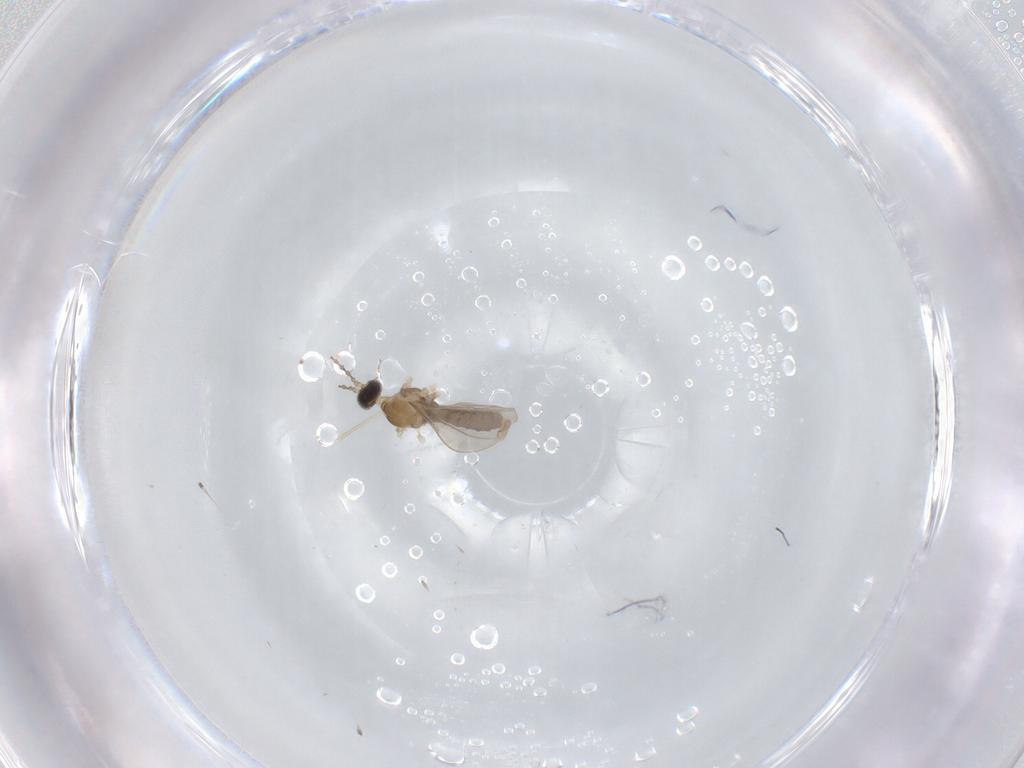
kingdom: Animalia
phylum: Arthropoda
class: Insecta
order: Diptera
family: Cecidomyiidae
